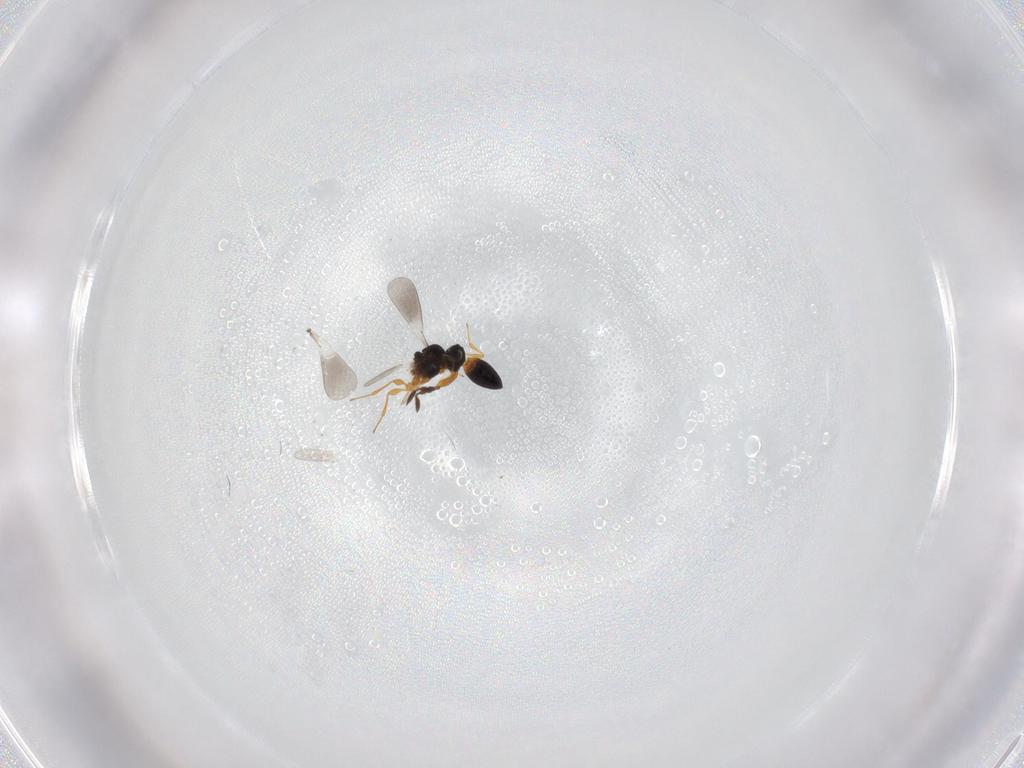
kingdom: Animalia
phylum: Arthropoda
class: Insecta
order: Hymenoptera
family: Platygastridae
